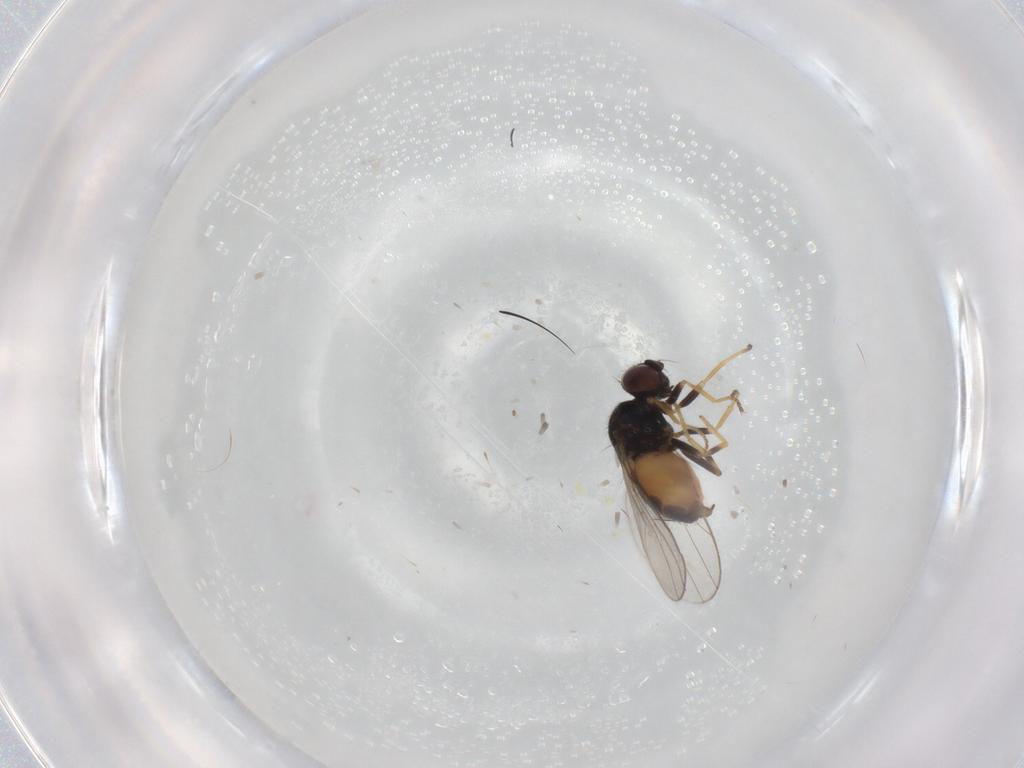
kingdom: Animalia
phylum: Arthropoda
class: Insecta
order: Diptera
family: Chloropidae
